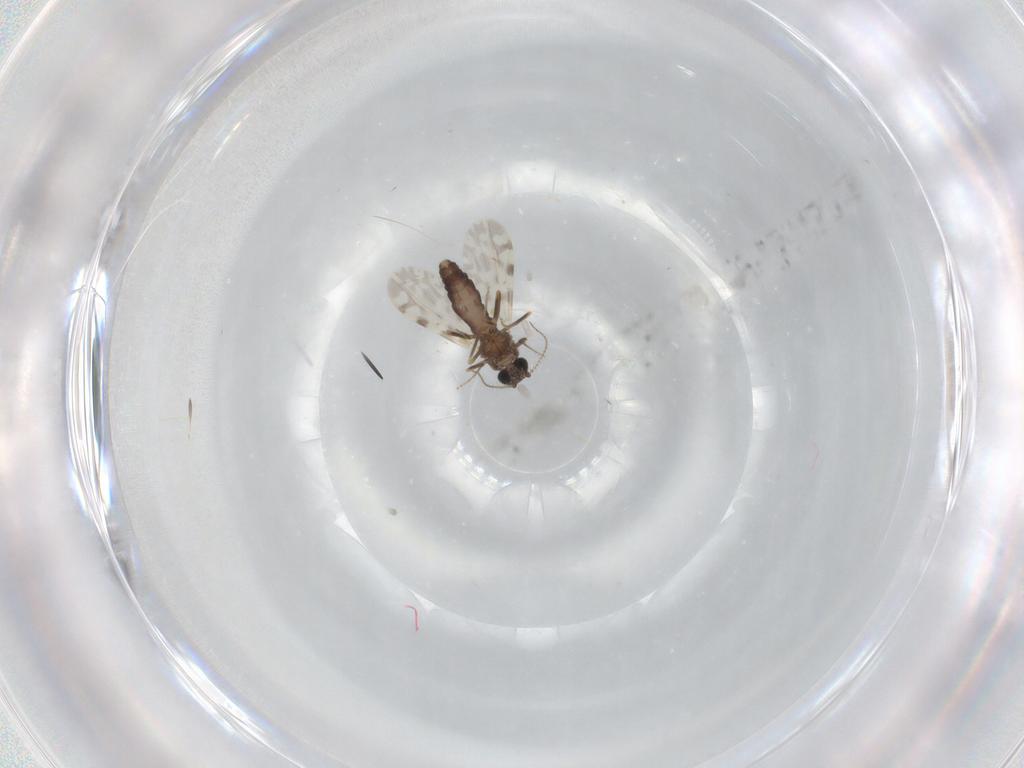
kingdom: Animalia
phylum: Arthropoda
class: Insecta
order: Diptera
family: Ceratopogonidae
